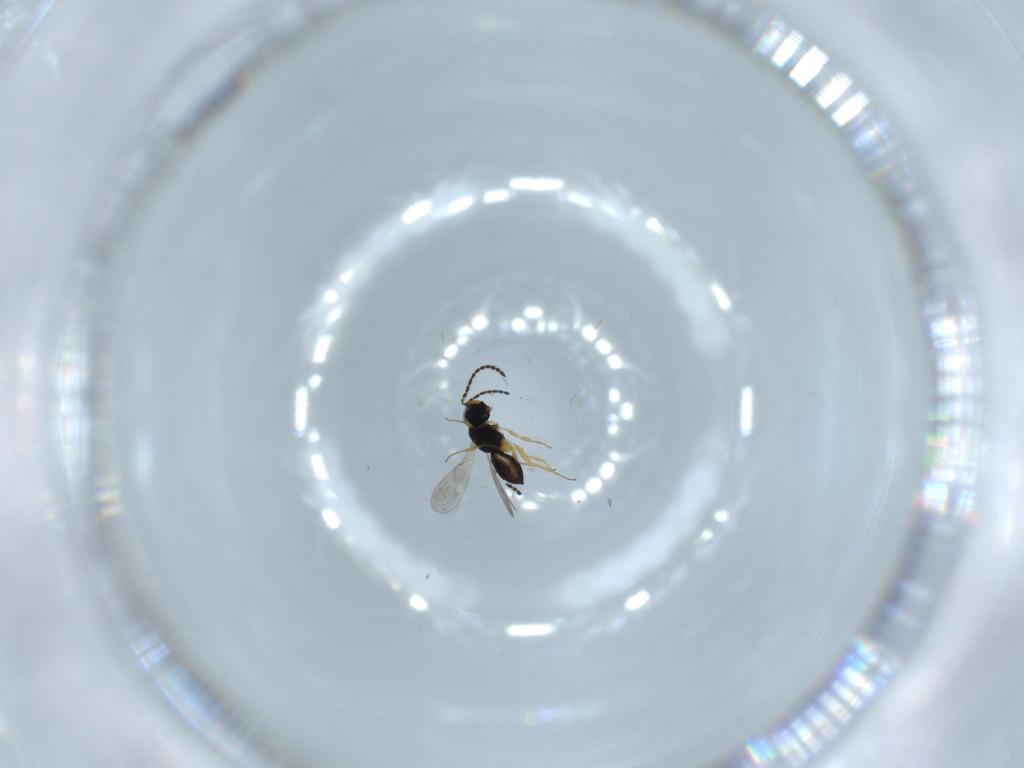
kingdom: Animalia
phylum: Arthropoda
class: Insecta
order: Hymenoptera
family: Scelionidae
